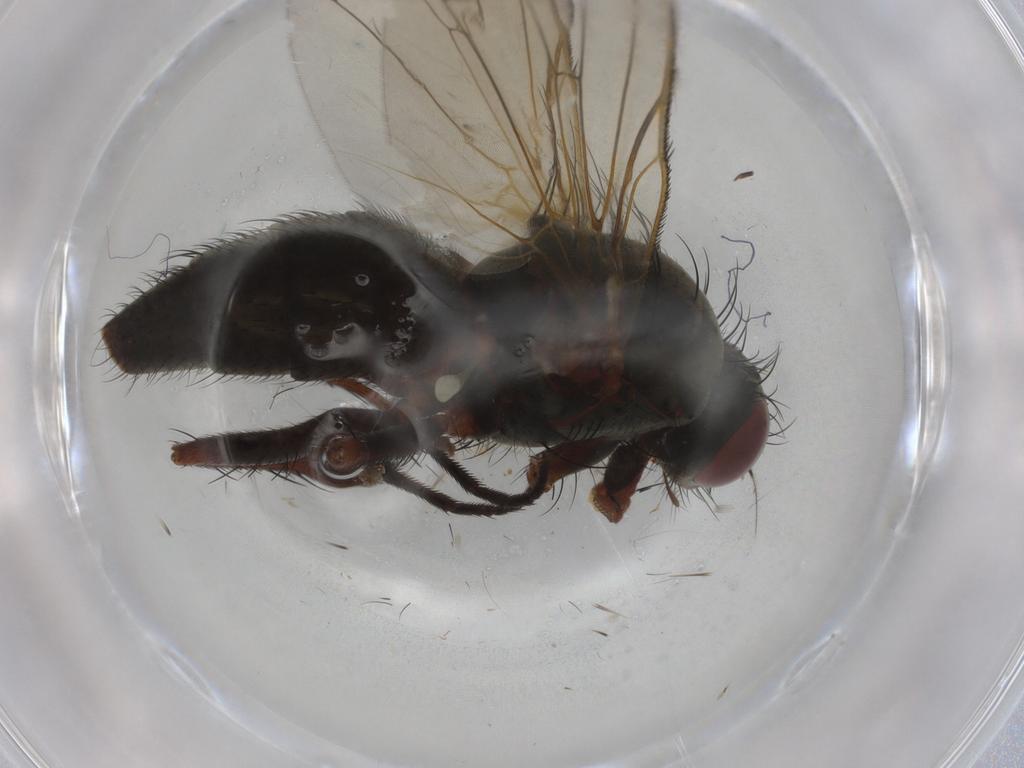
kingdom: Animalia
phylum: Arthropoda
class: Insecta
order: Diptera
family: Anthomyiidae
